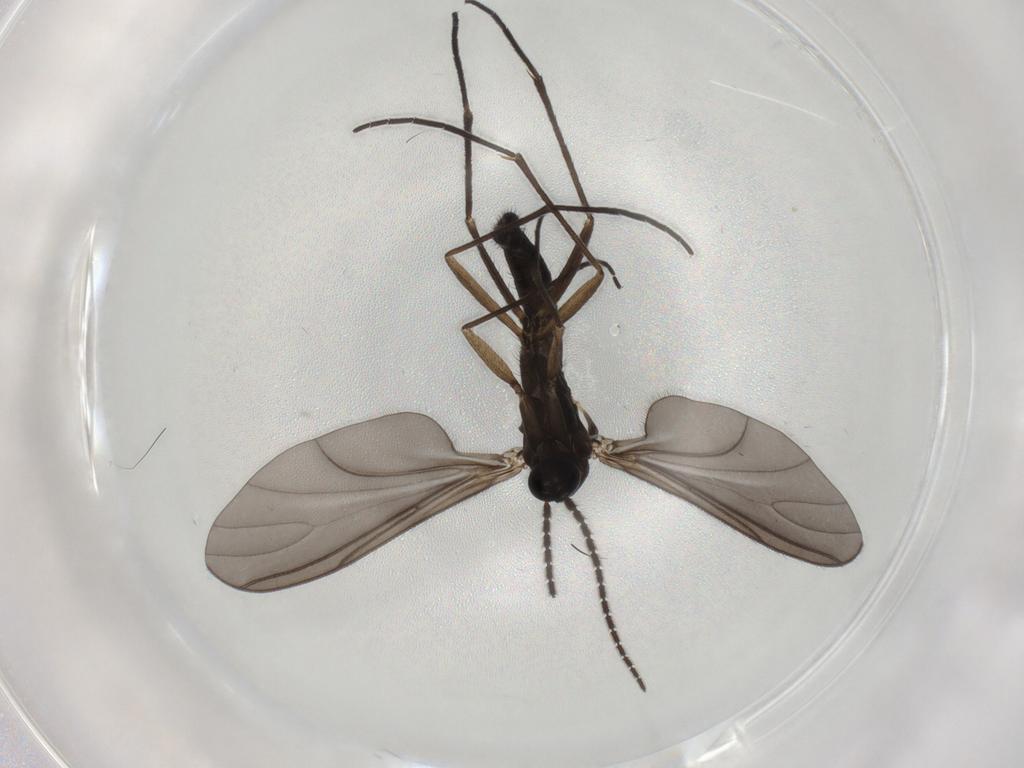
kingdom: Animalia
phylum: Arthropoda
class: Insecta
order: Diptera
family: Sciaridae
